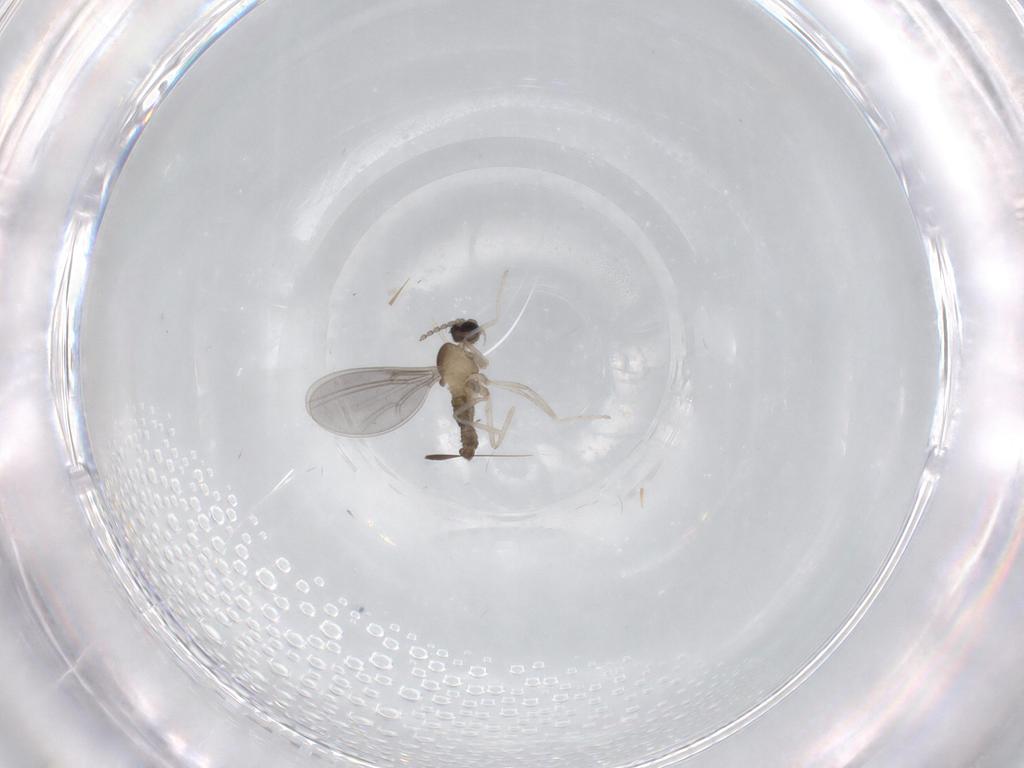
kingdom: Animalia
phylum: Arthropoda
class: Insecta
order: Diptera
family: Cecidomyiidae
